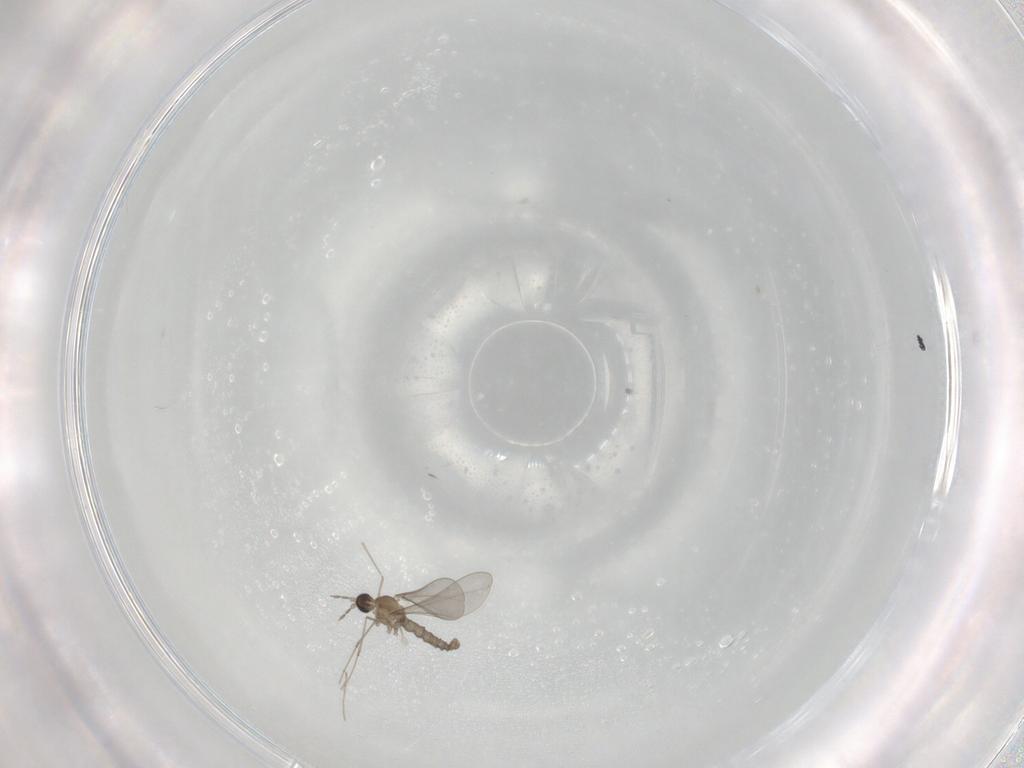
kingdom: Animalia
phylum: Arthropoda
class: Insecta
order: Diptera
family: Cecidomyiidae
